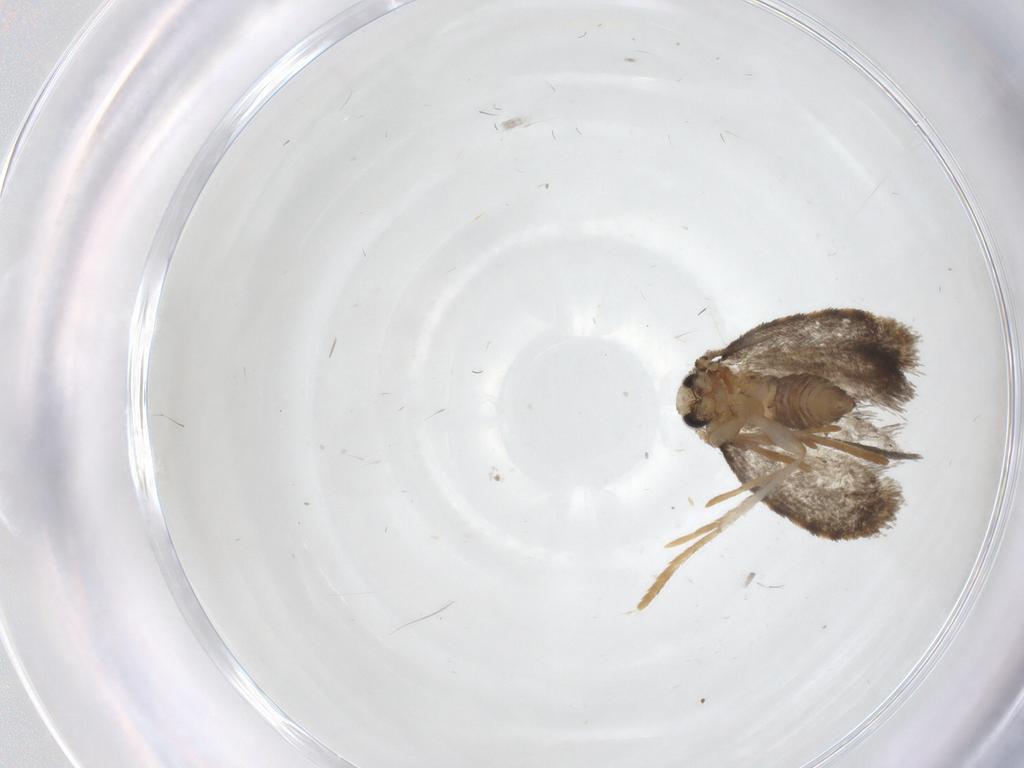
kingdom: Animalia
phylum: Arthropoda
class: Insecta
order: Lepidoptera
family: Psychidae
